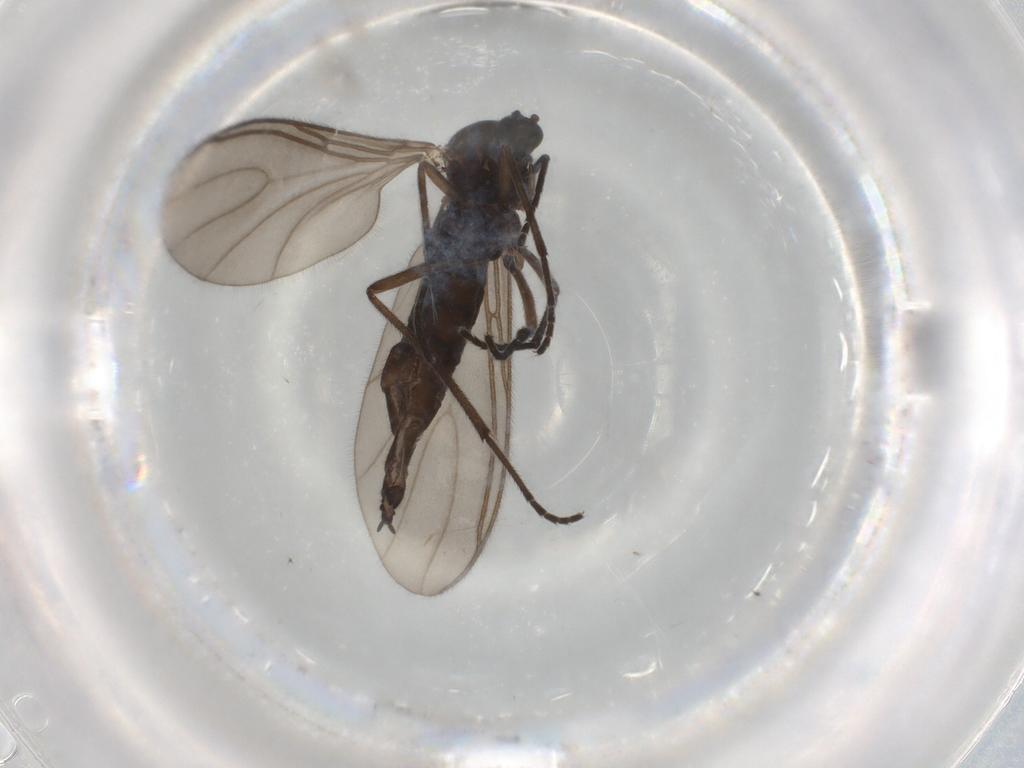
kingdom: Animalia
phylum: Arthropoda
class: Insecta
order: Diptera
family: Sciaridae
